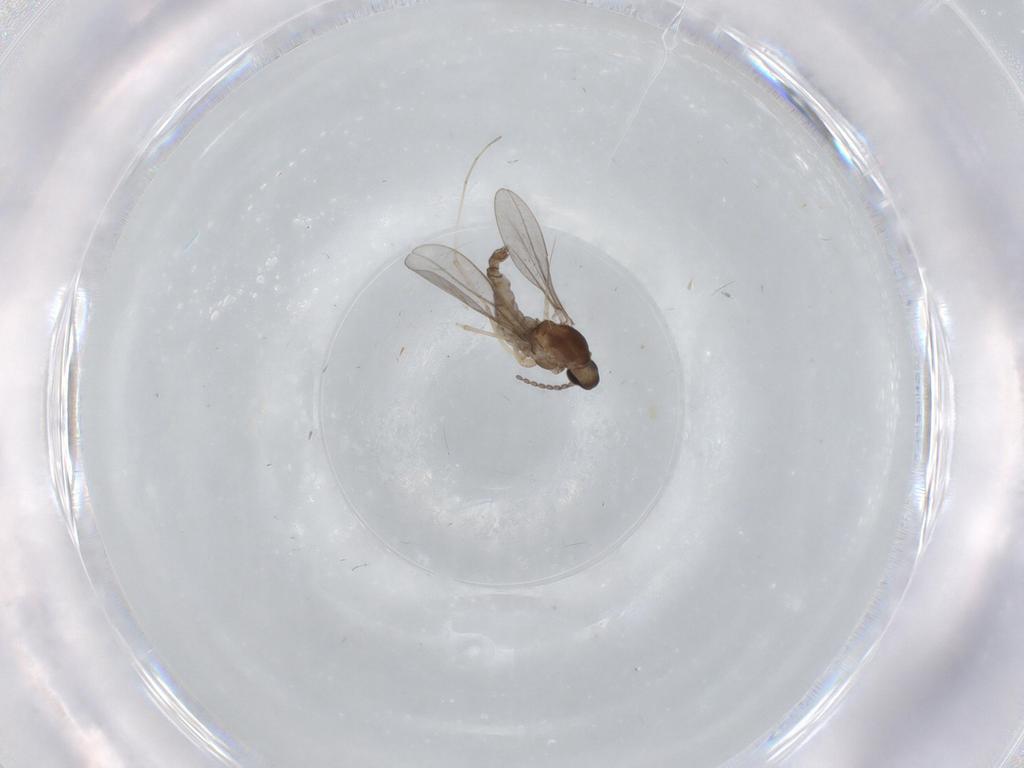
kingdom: Animalia
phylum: Arthropoda
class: Insecta
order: Diptera
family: Cecidomyiidae
